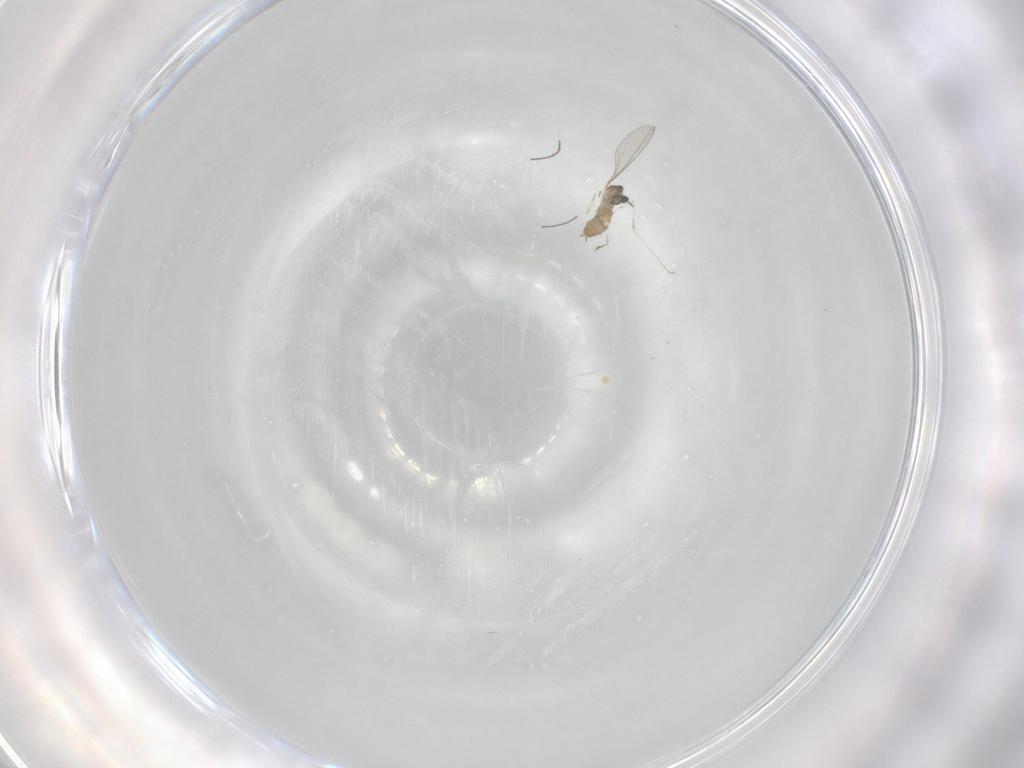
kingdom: Animalia
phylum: Arthropoda
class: Insecta
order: Diptera
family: Cecidomyiidae
